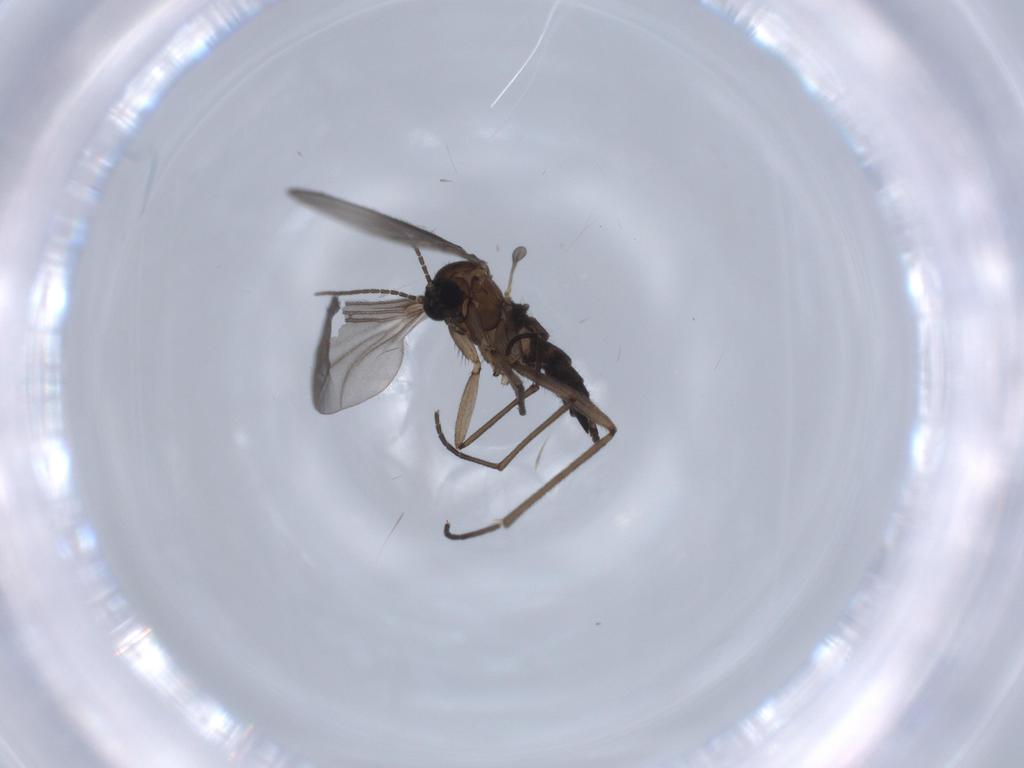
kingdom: Animalia
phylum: Arthropoda
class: Insecta
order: Diptera
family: Sciaridae
